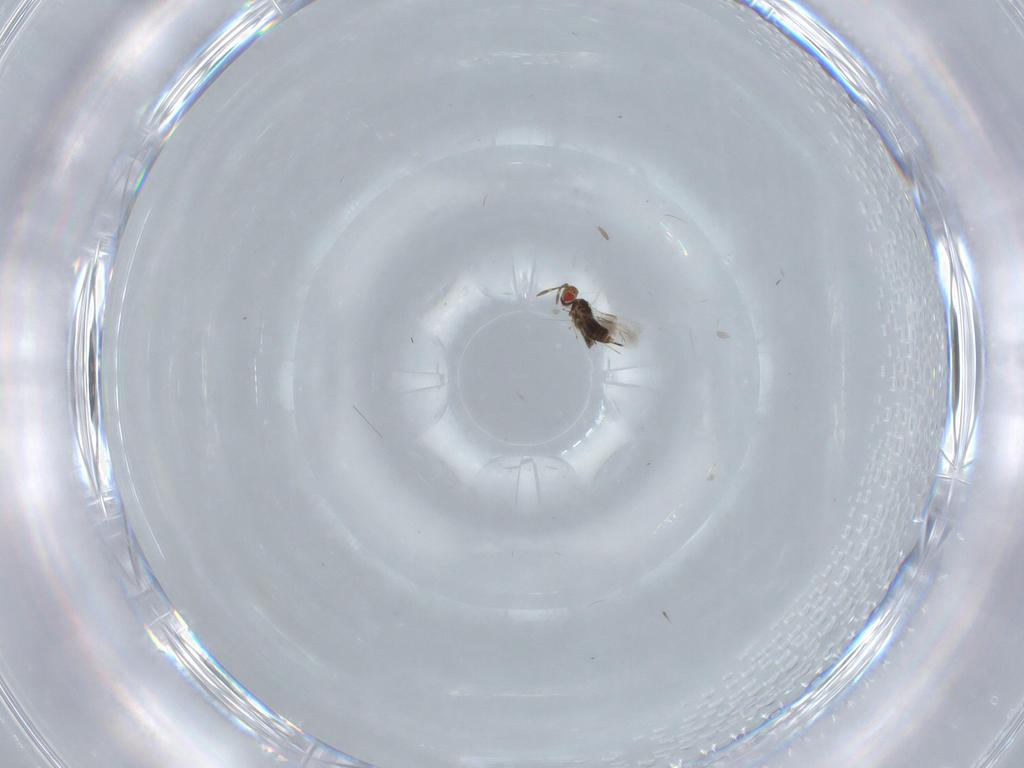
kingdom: Animalia
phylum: Arthropoda
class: Insecta
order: Hymenoptera
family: Azotidae
